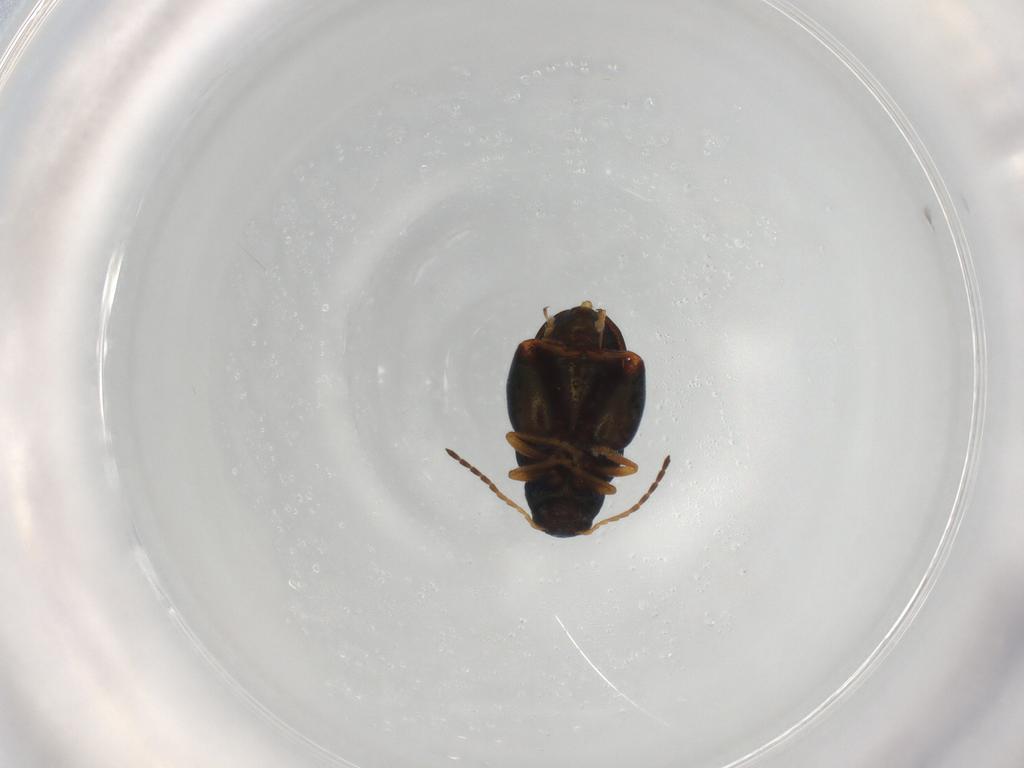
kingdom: Animalia
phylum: Arthropoda
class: Insecta
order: Coleoptera
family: Chrysomelidae
